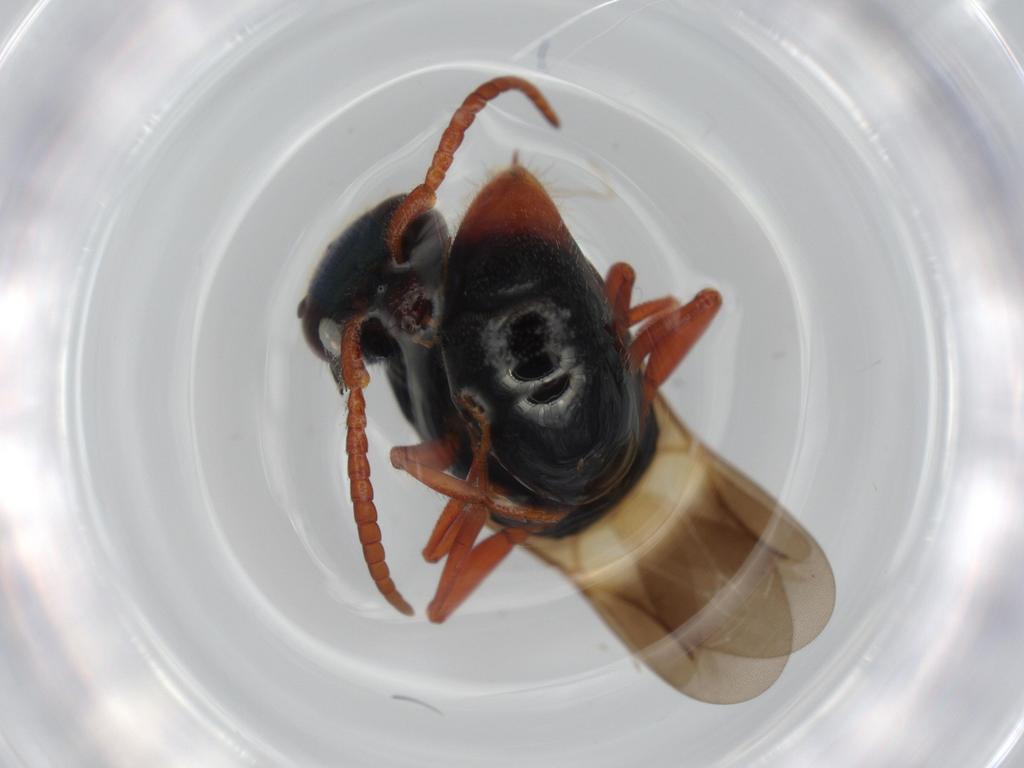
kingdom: Animalia
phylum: Arthropoda
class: Insecta
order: Hymenoptera
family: Bethylidae
